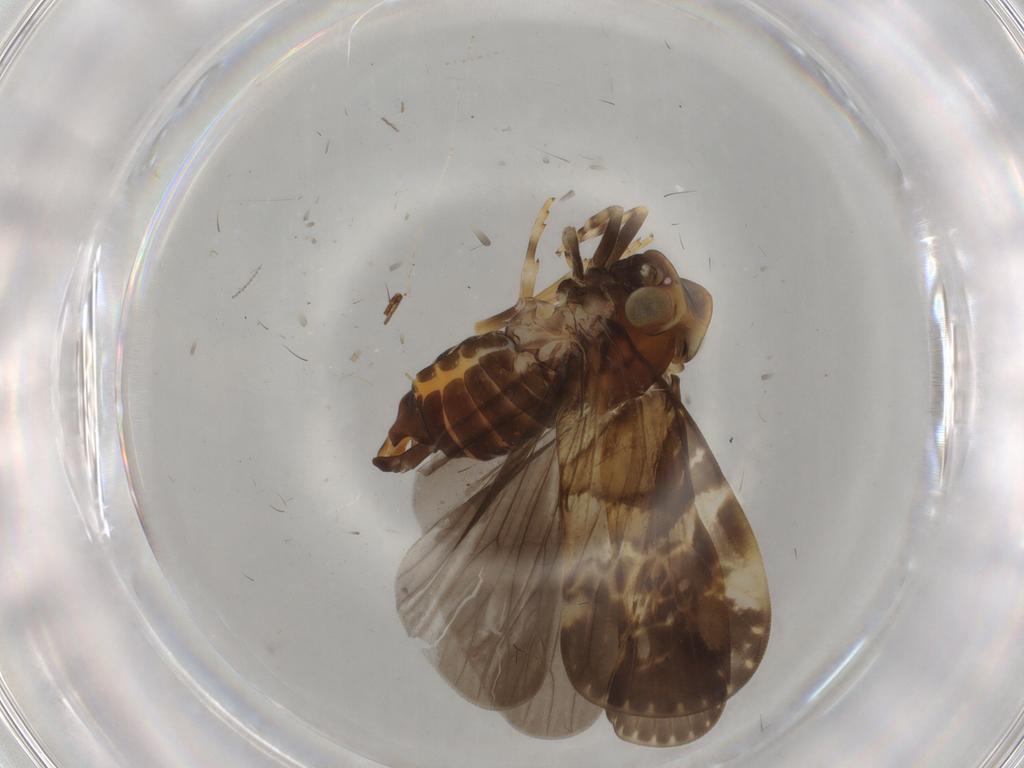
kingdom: Animalia
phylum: Arthropoda
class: Insecta
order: Hemiptera
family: Cixiidae
